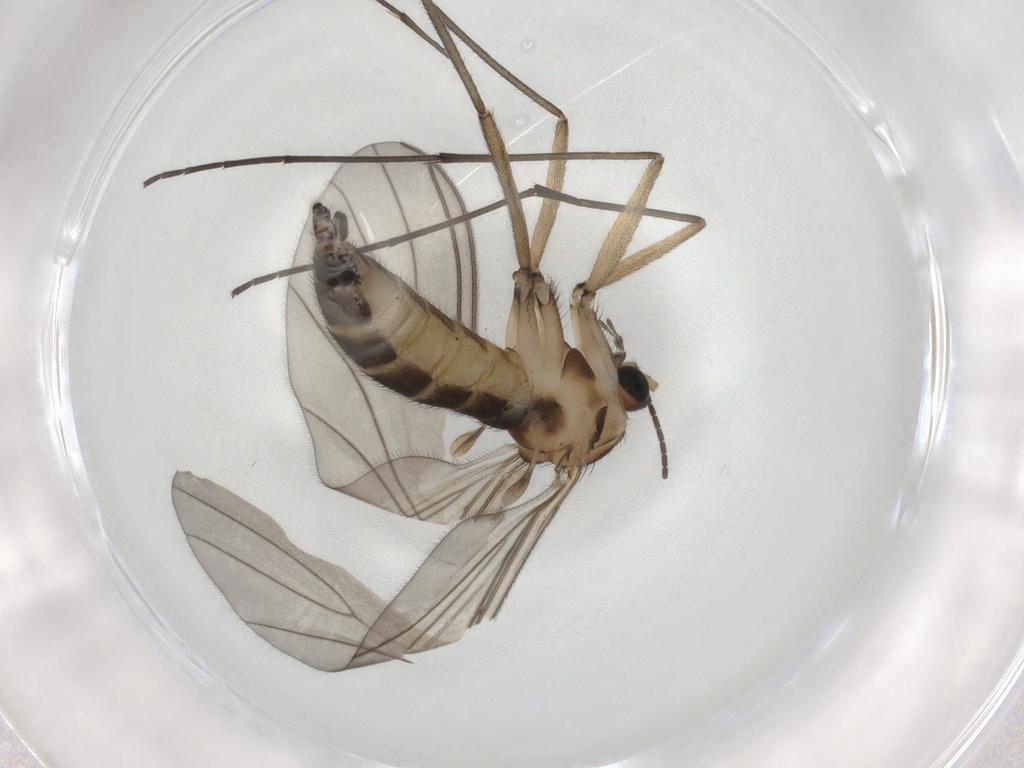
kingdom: Animalia
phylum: Arthropoda
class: Insecta
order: Diptera
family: Sciaridae
